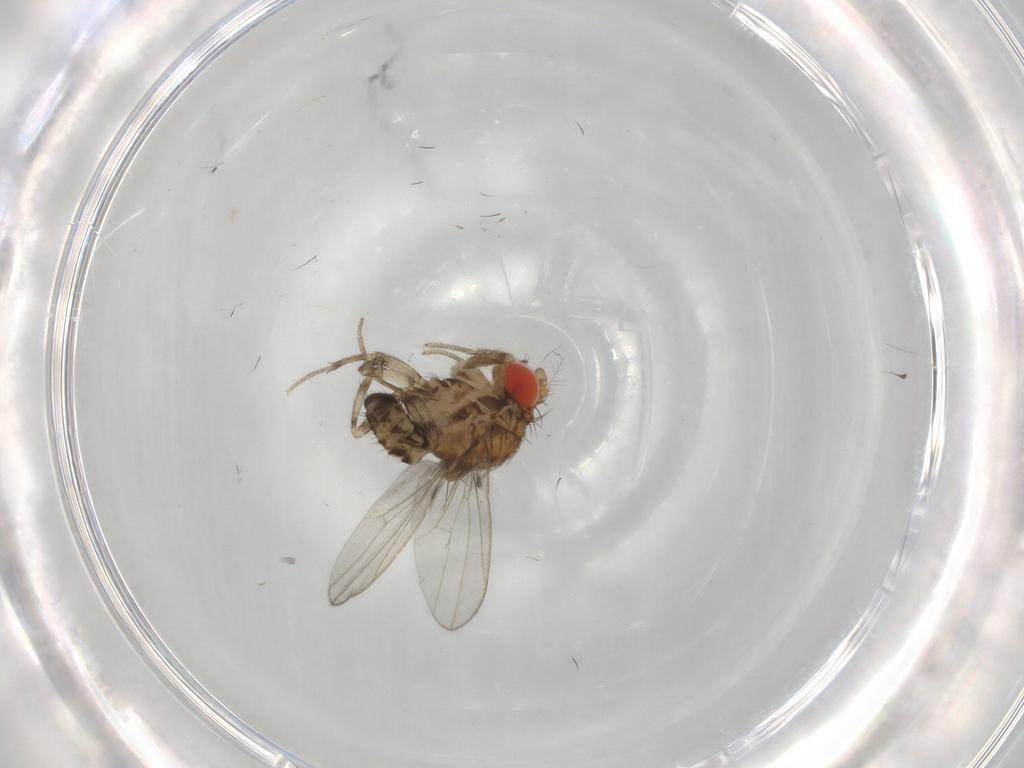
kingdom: Animalia
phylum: Arthropoda
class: Insecta
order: Diptera
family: Drosophilidae
